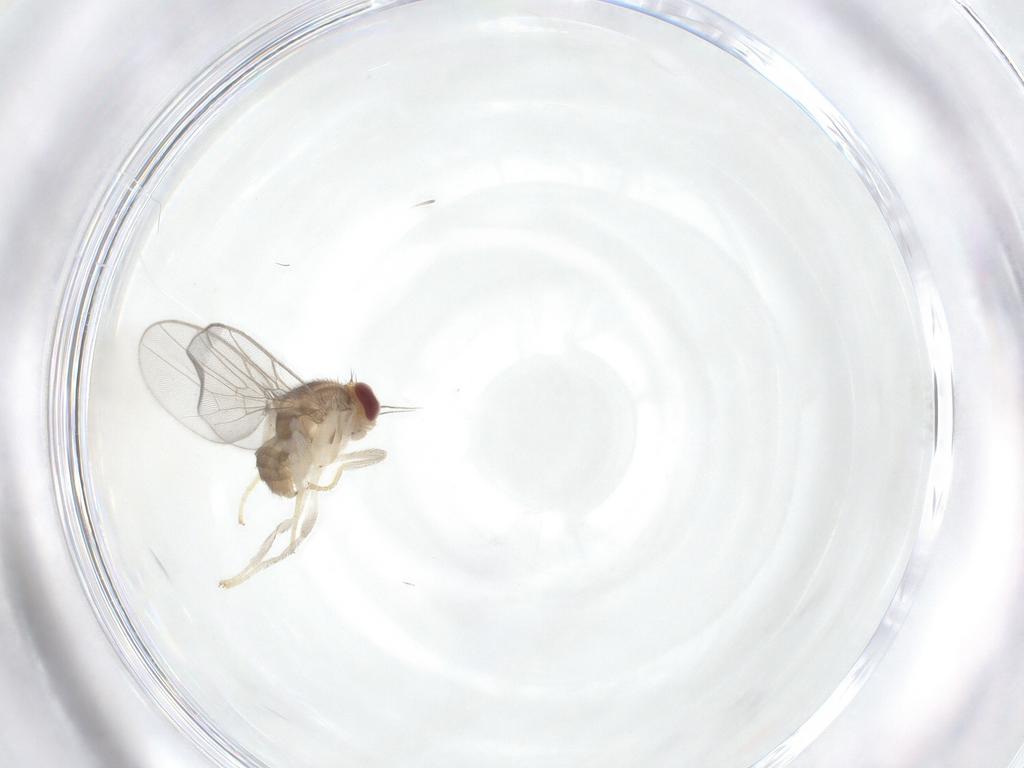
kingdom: Animalia
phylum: Arthropoda
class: Insecta
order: Diptera
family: Chloropidae
